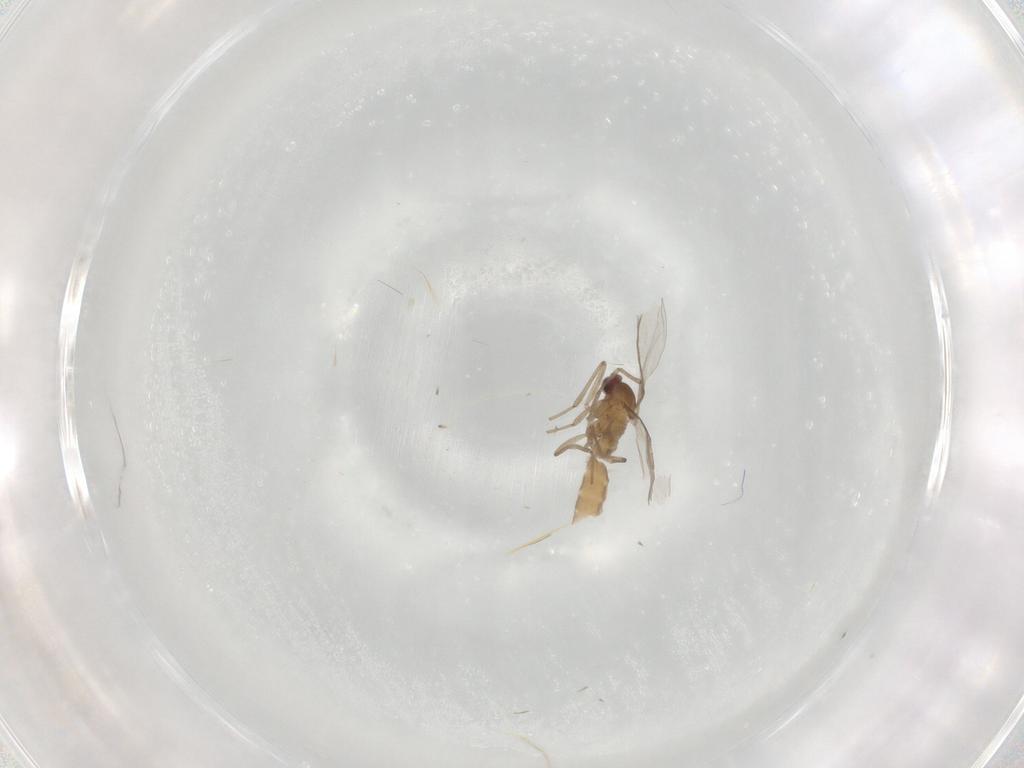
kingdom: Animalia
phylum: Arthropoda
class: Insecta
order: Diptera
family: Cecidomyiidae
